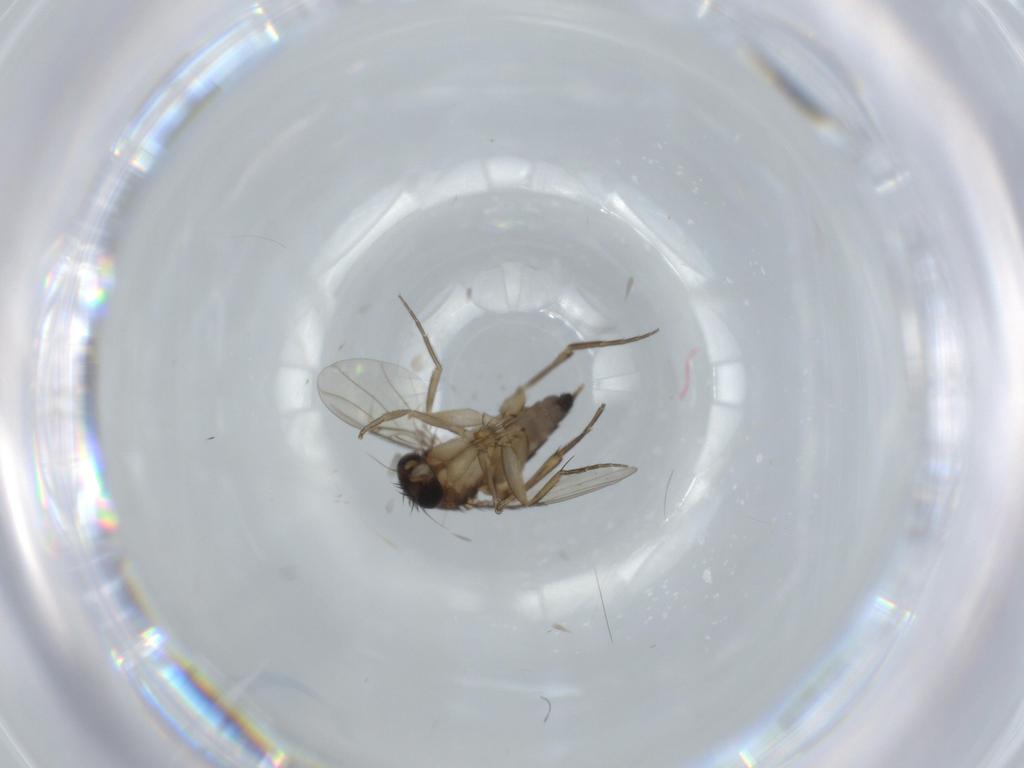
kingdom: Animalia
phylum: Arthropoda
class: Insecta
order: Diptera
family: Phoridae
